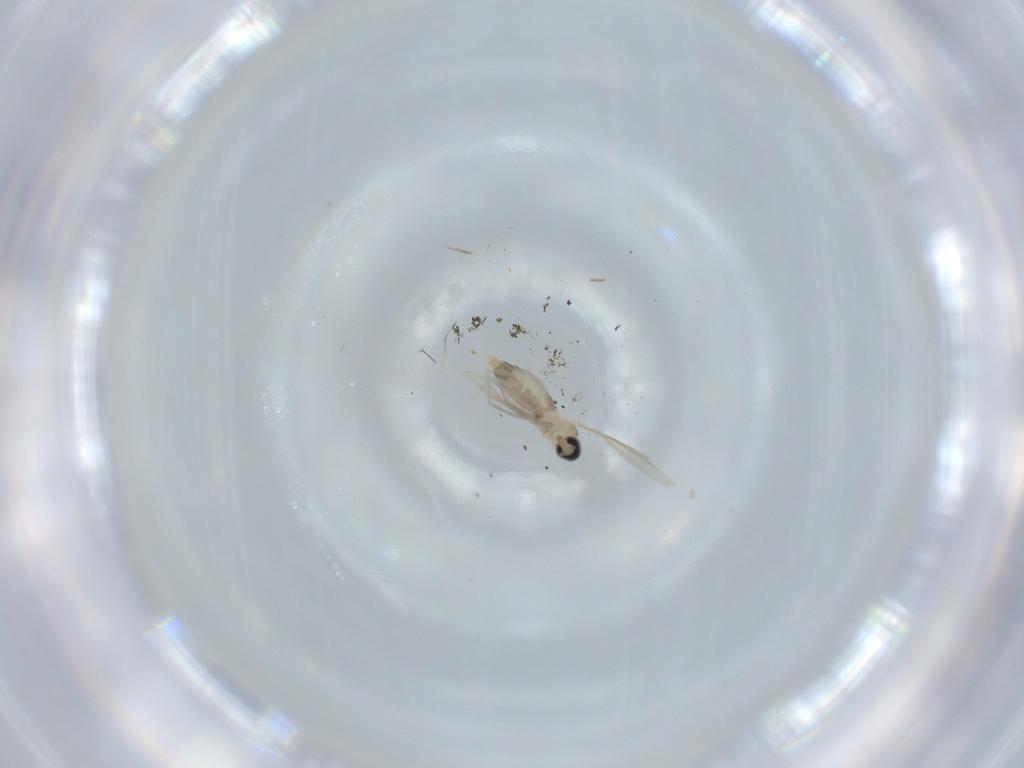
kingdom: Animalia
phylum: Arthropoda
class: Insecta
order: Diptera
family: Cecidomyiidae
